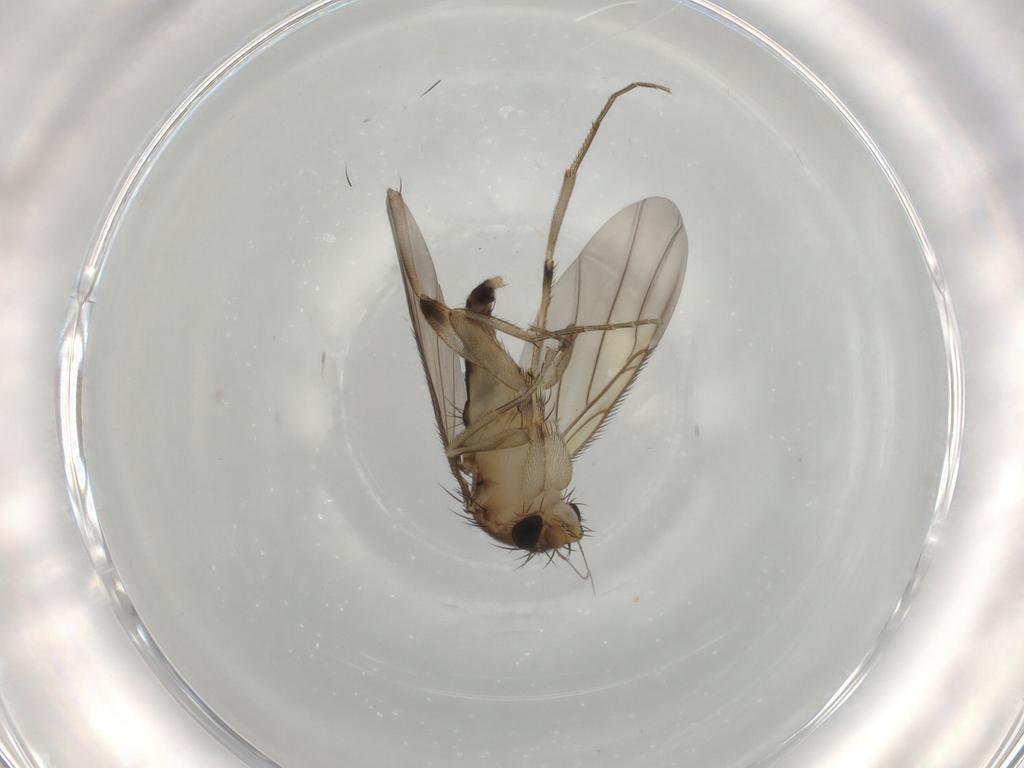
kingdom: Animalia
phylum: Arthropoda
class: Insecta
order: Diptera
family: Phoridae
